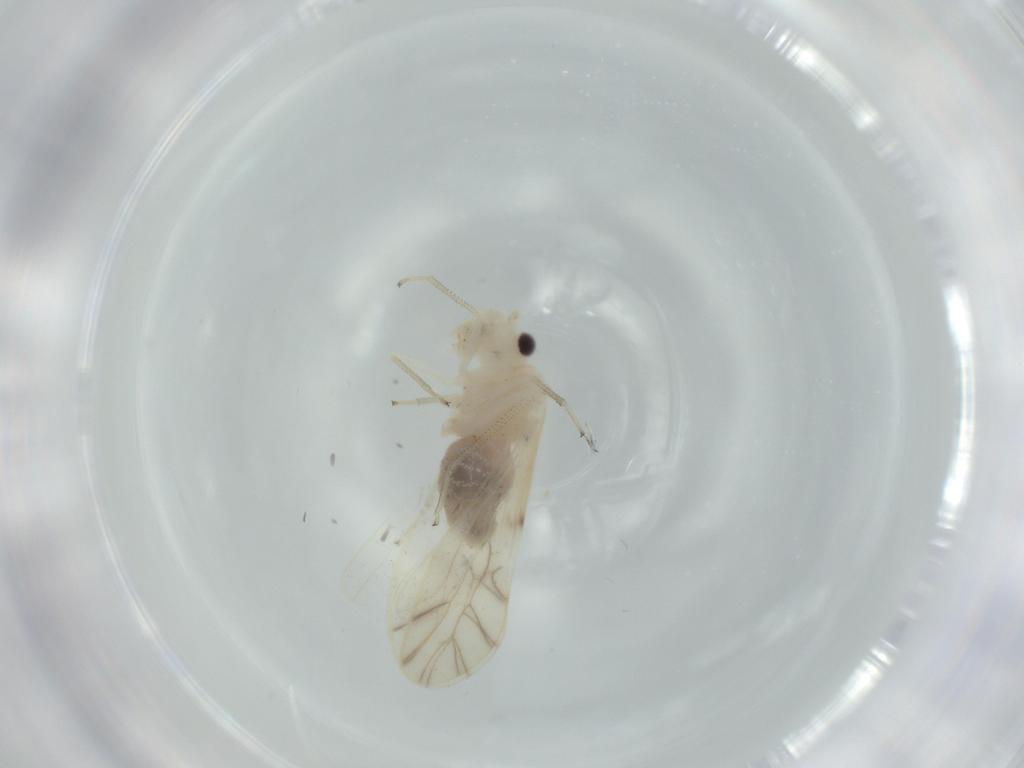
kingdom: Animalia
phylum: Arthropoda
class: Insecta
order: Psocodea
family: Caeciliusidae
